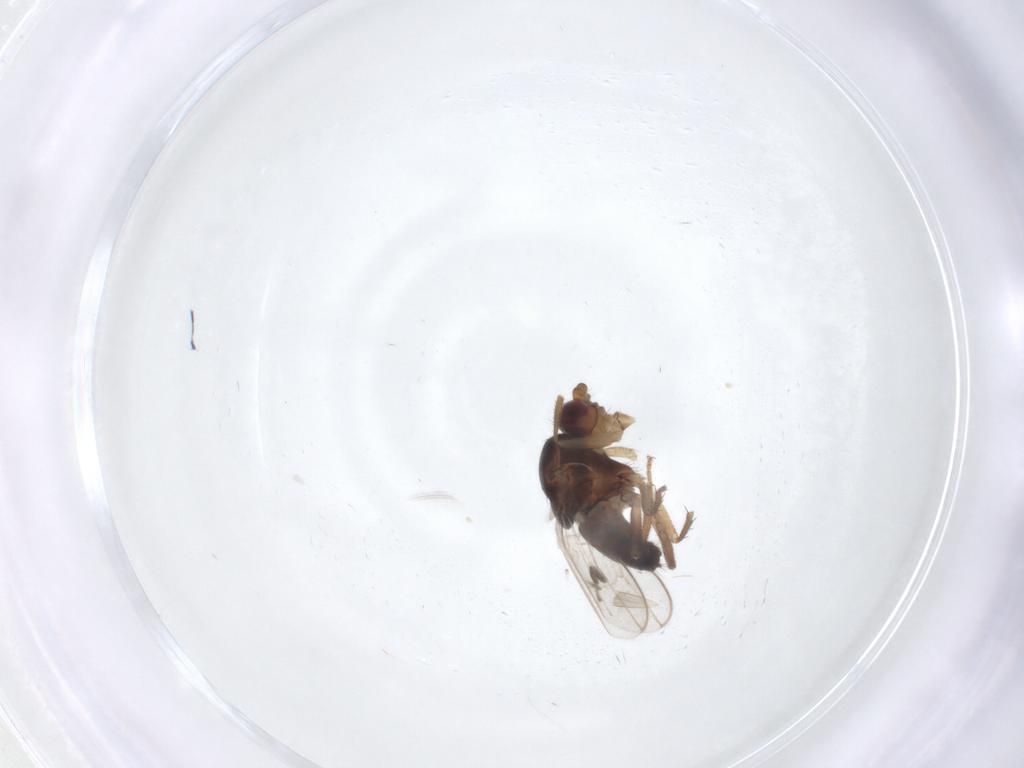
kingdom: Animalia
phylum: Arthropoda
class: Insecta
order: Diptera
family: Sphaeroceridae
